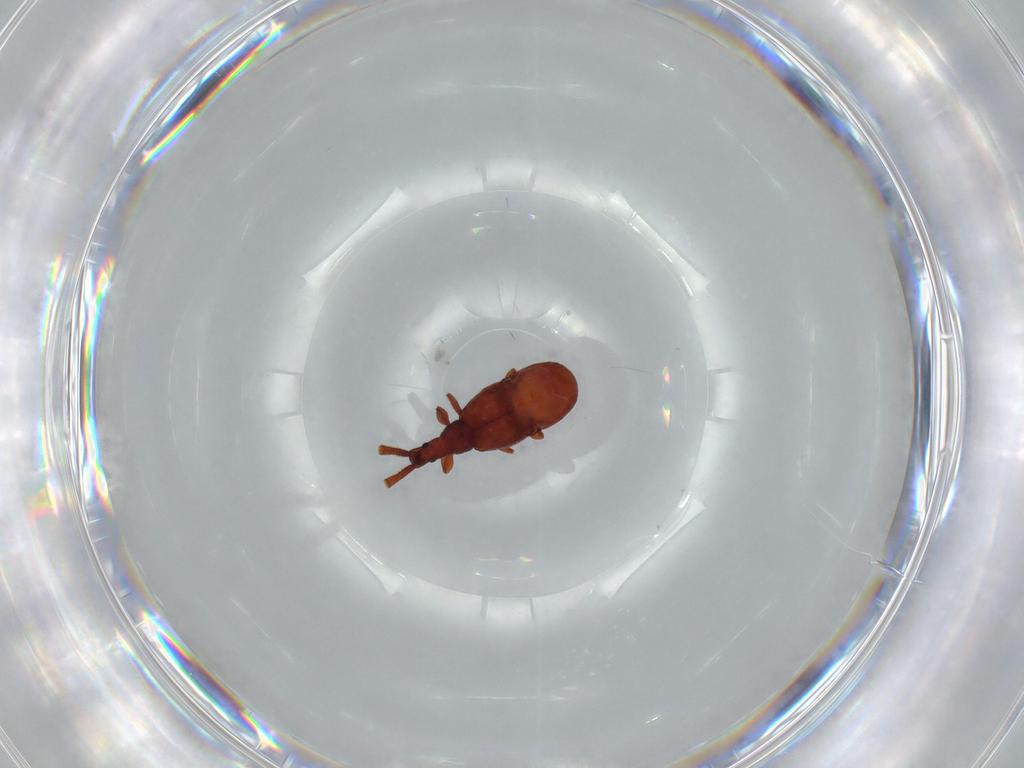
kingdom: Animalia
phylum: Arthropoda
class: Insecta
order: Coleoptera
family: Staphylinidae
